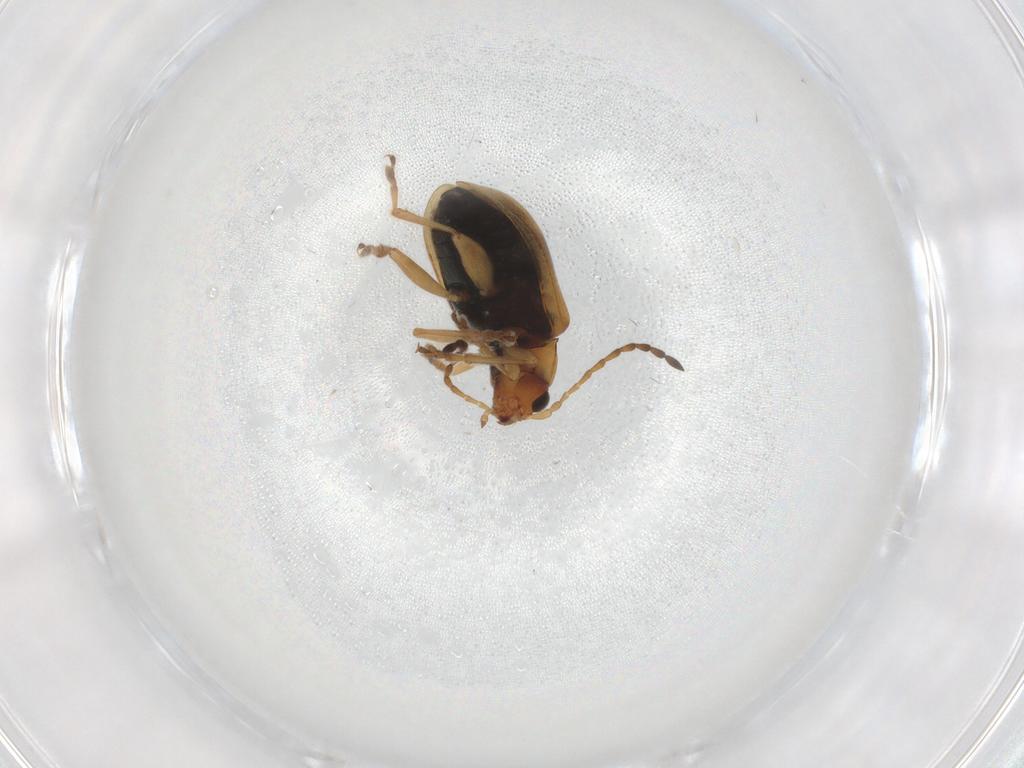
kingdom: Animalia
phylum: Arthropoda
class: Insecta
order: Coleoptera
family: Chrysomelidae
